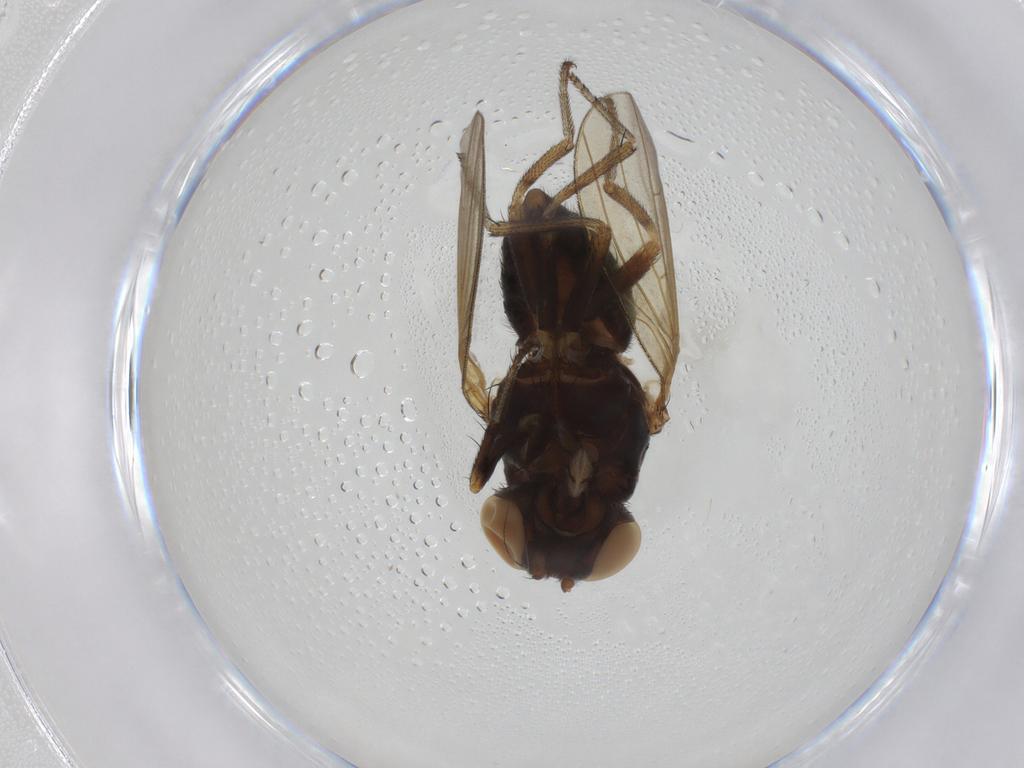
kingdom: Animalia
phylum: Arthropoda
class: Insecta
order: Diptera
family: Lauxaniidae
